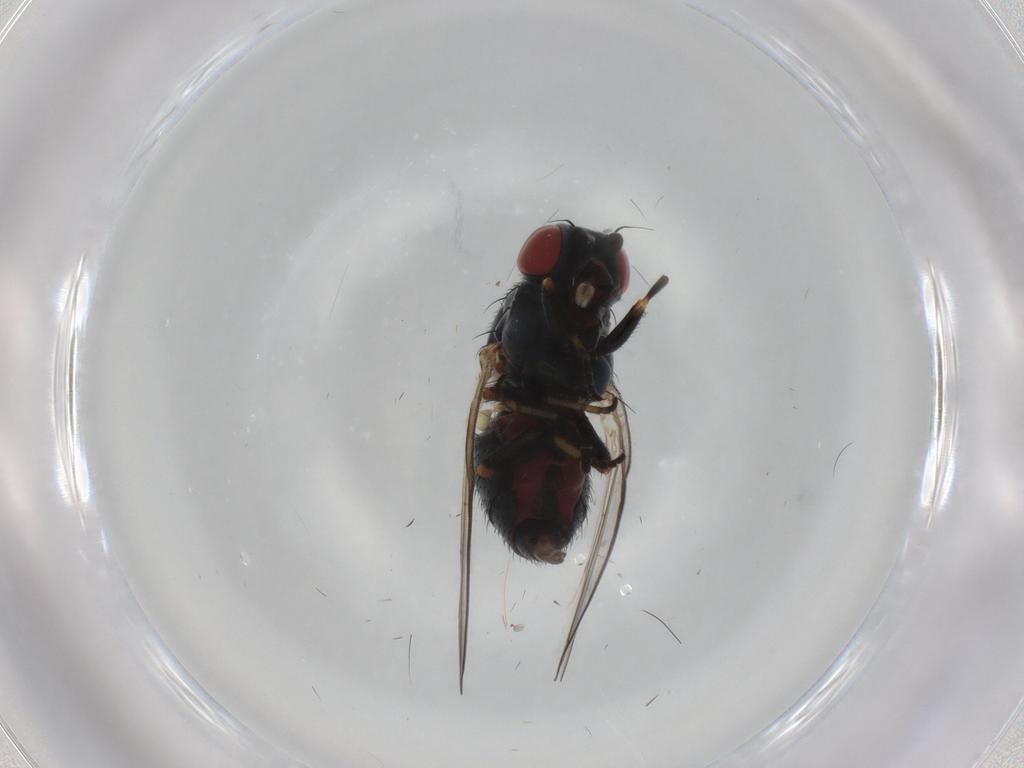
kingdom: Animalia
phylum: Arthropoda
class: Insecta
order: Diptera
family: Chamaemyiidae
